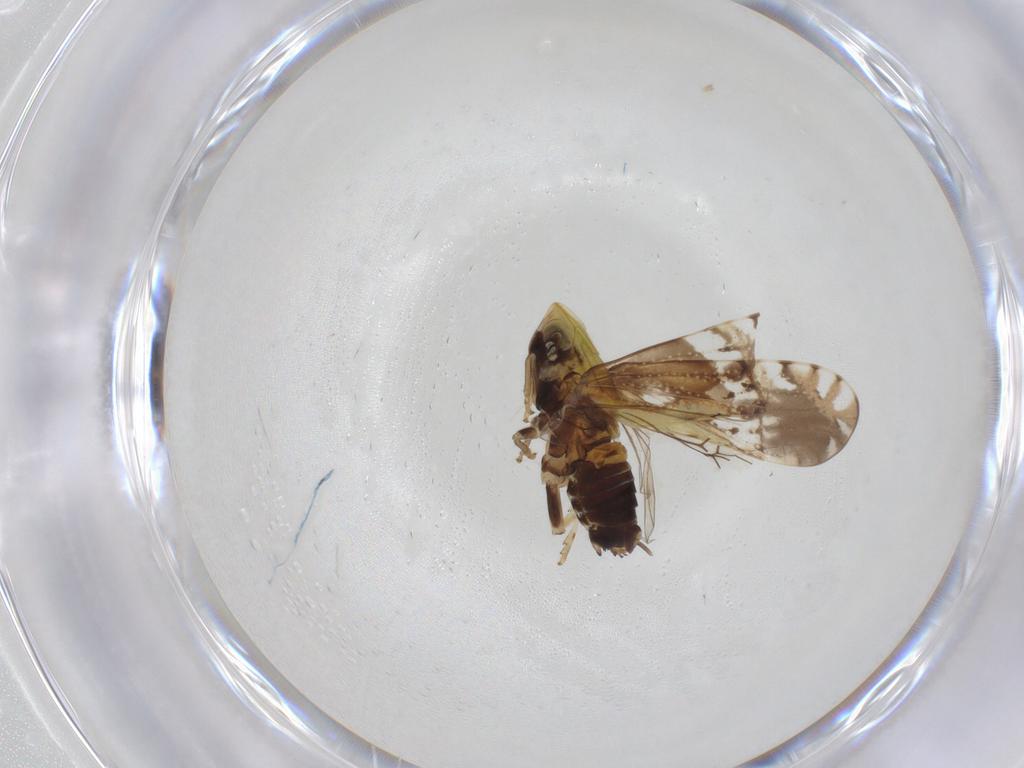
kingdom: Animalia
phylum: Arthropoda
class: Insecta
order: Hemiptera
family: Delphacidae
